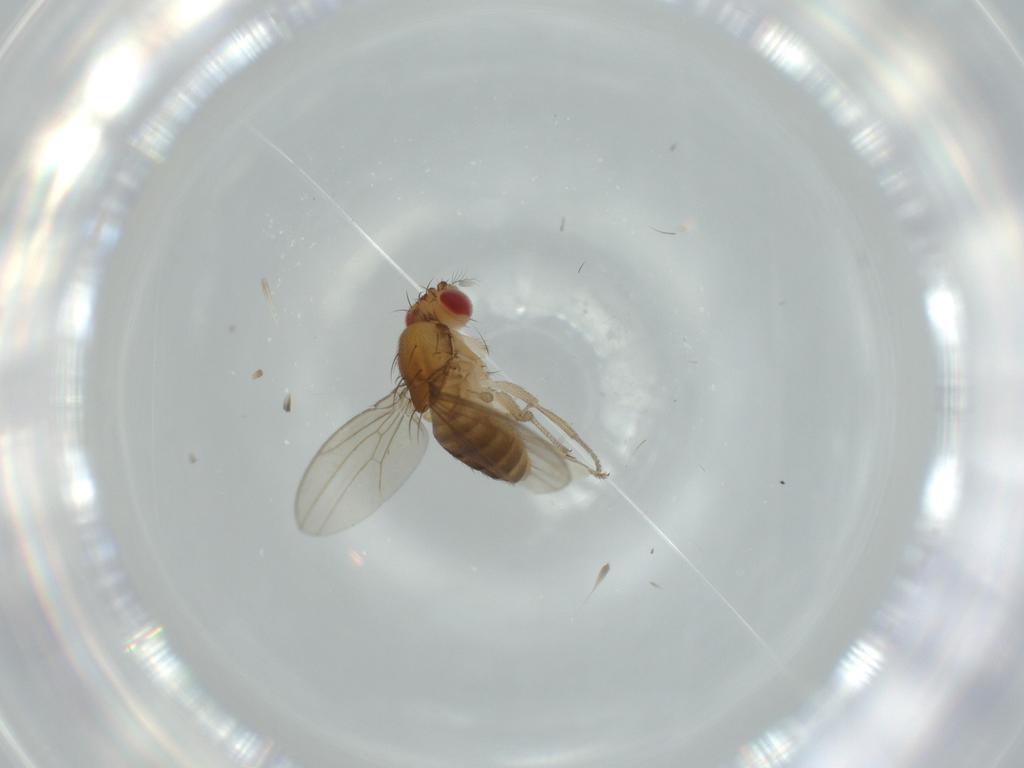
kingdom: Animalia
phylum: Arthropoda
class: Insecta
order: Diptera
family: Drosophilidae
